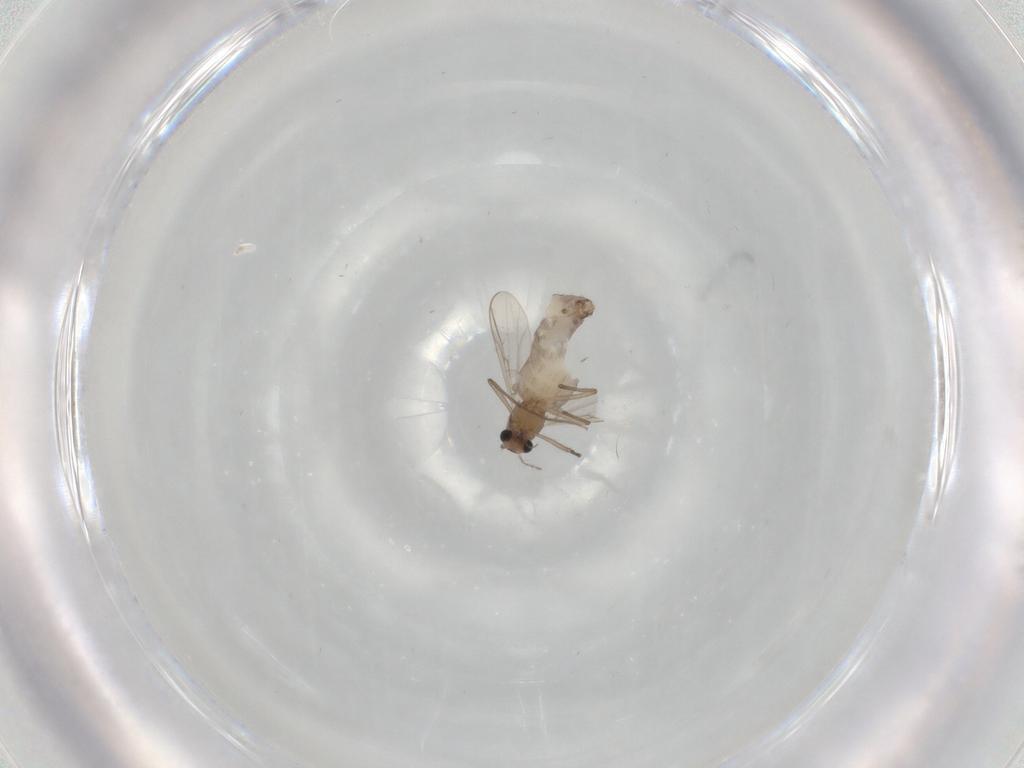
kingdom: Animalia
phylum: Arthropoda
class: Insecta
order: Diptera
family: Chironomidae
